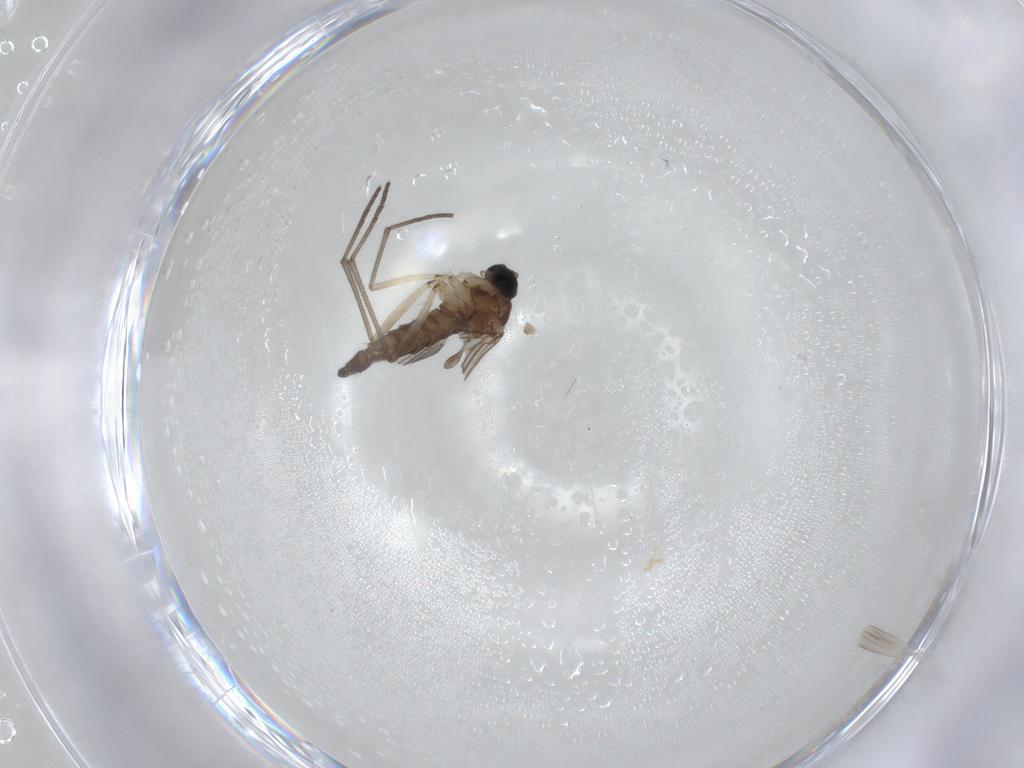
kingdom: Animalia
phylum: Arthropoda
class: Insecta
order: Diptera
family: Sciaridae
